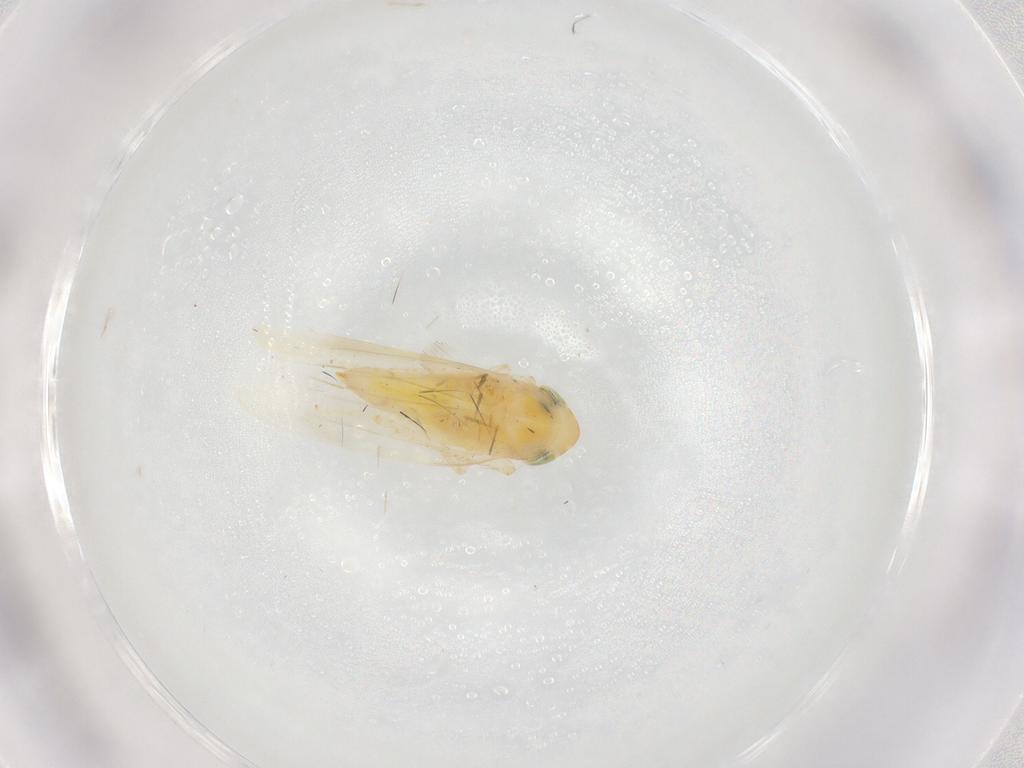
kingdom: Animalia
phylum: Arthropoda
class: Insecta
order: Hemiptera
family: Cicadellidae
